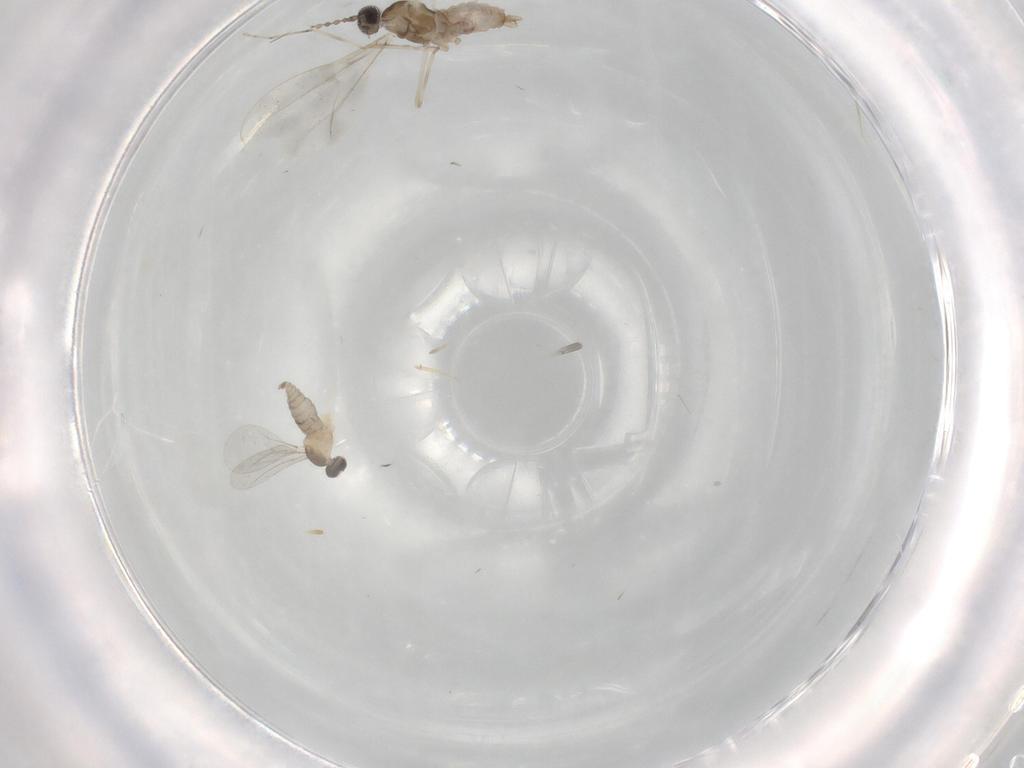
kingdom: Animalia
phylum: Arthropoda
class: Insecta
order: Diptera
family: Cecidomyiidae
